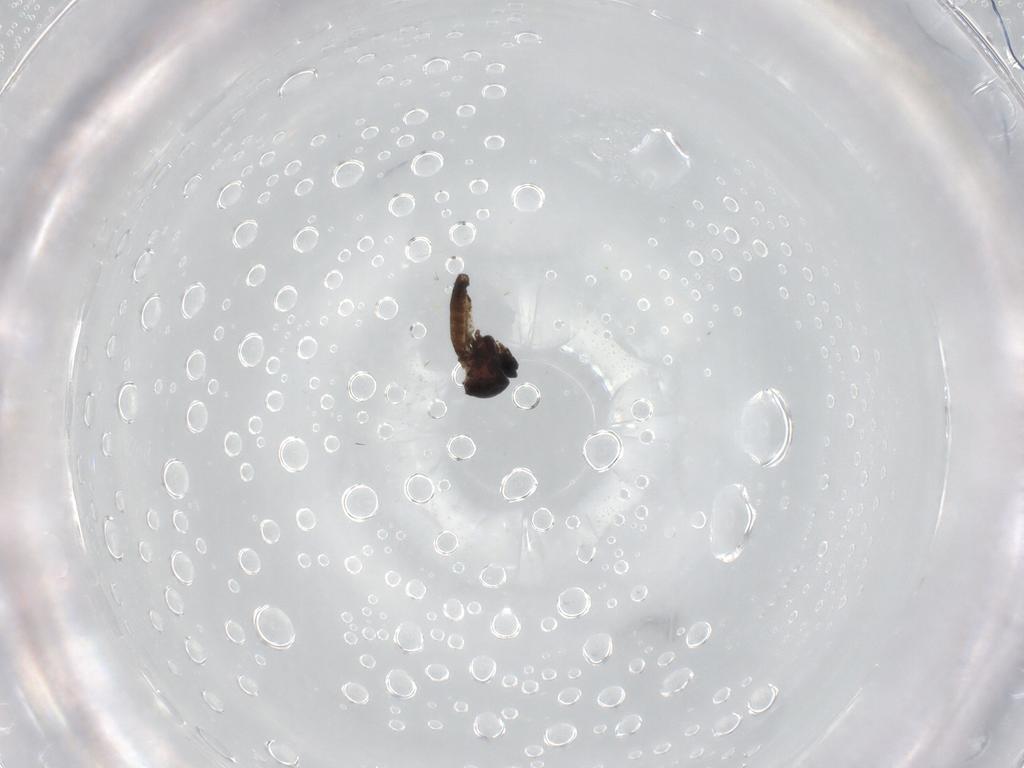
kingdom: Animalia
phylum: Arthropoda
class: Insecta
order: Diptera
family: Ceratopogonidae
